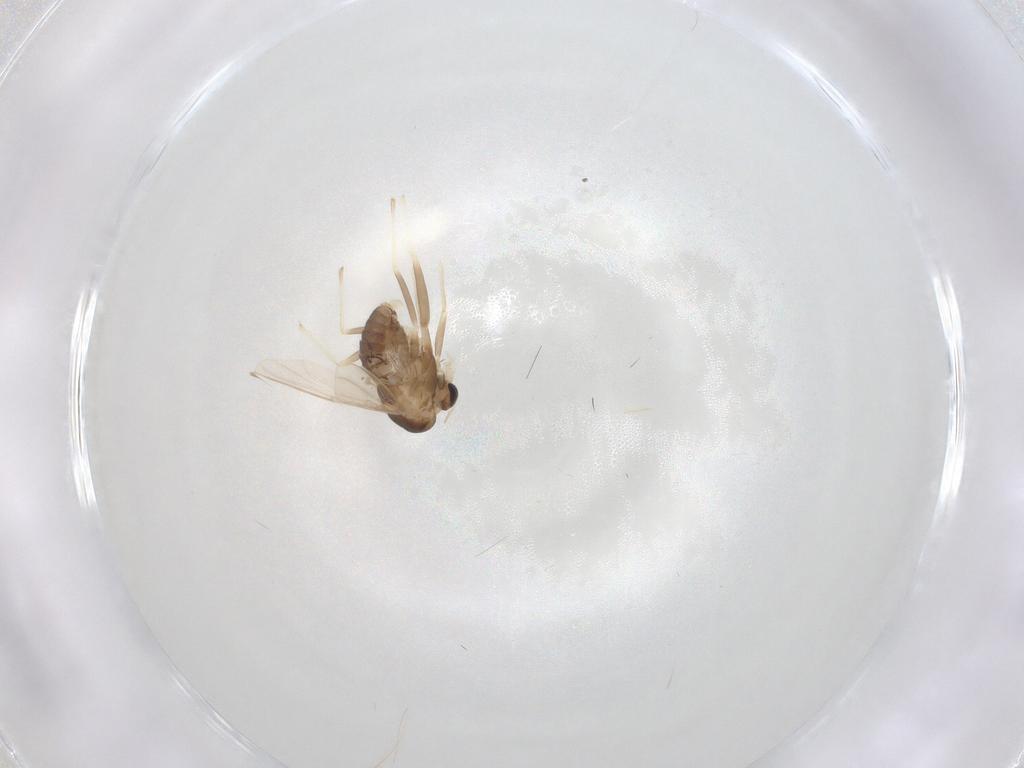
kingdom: Animalia
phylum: Arthropoda
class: Insecta
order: Diptera
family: Chironomidae
